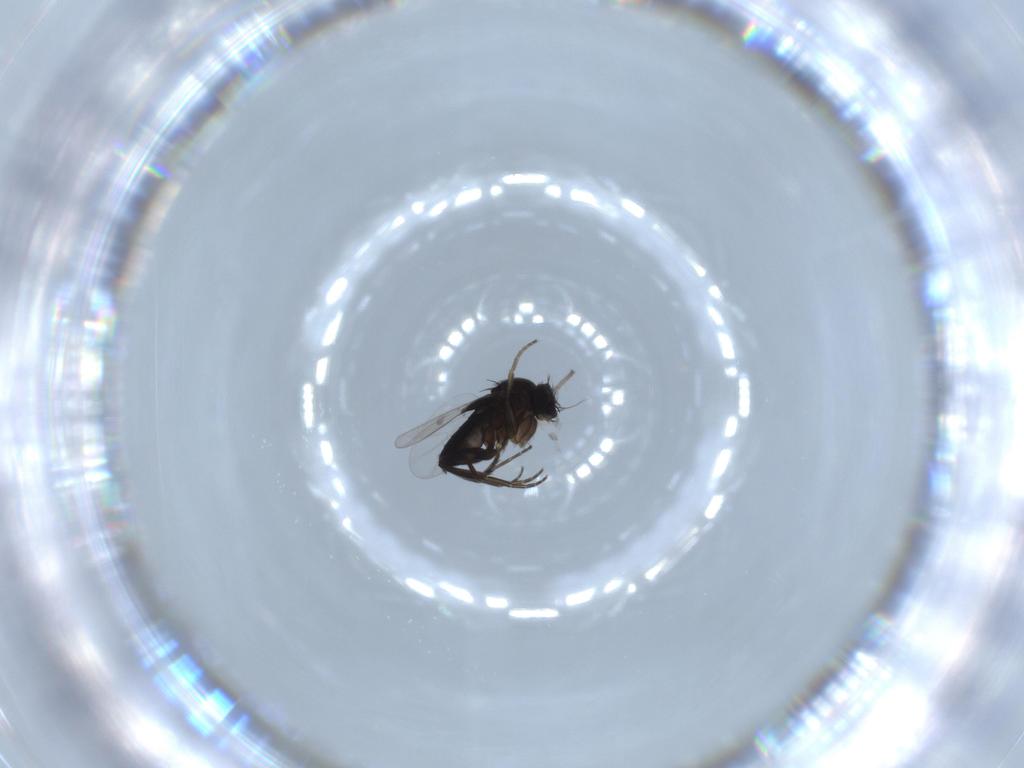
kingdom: Animalia
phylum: Arthropoda
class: Insecta
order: Diptera
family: Phoridae
